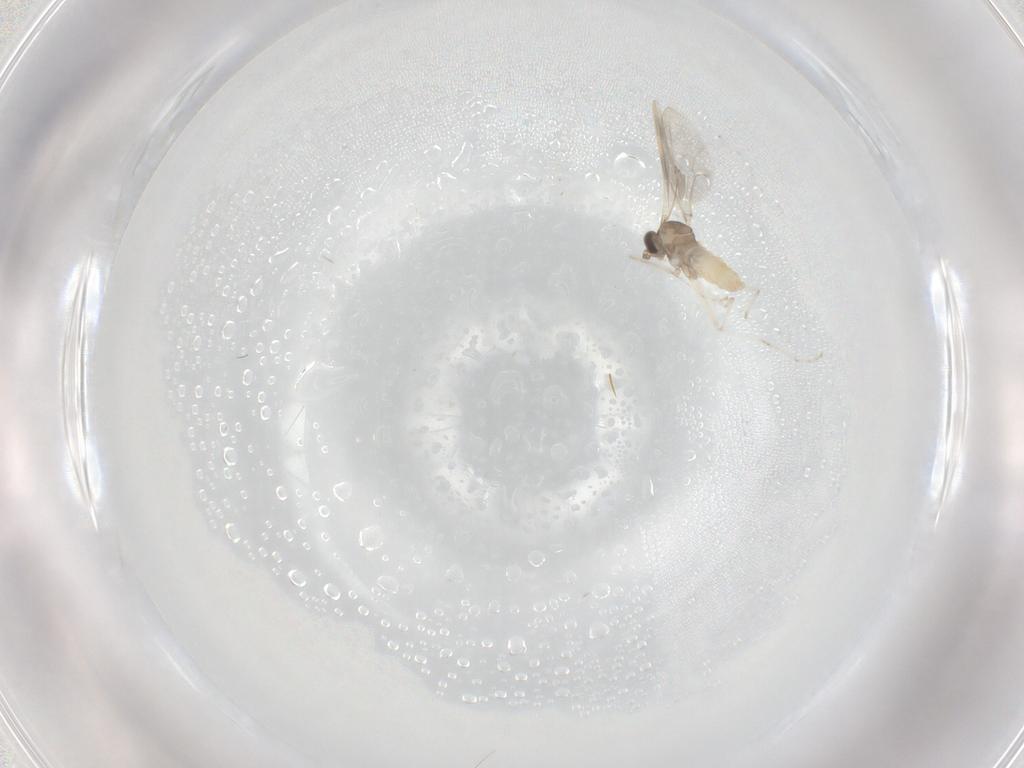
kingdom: Animalia
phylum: Arthropoda
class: Insecta
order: Diptera
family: Cecidomyiidae
